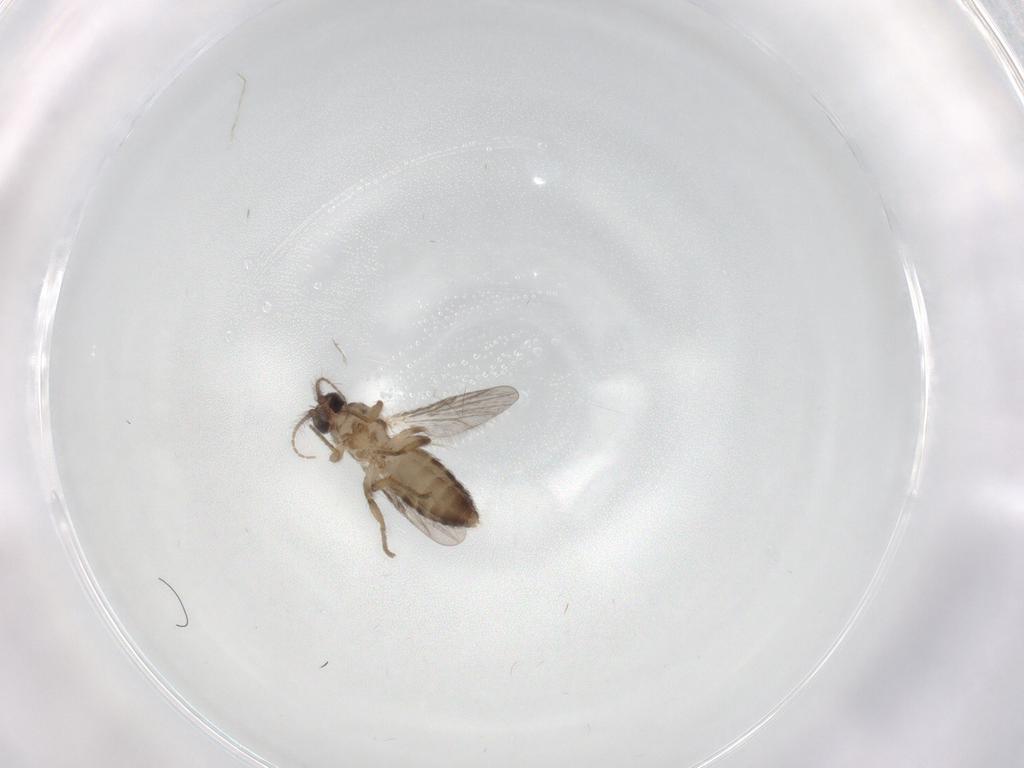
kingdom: Animalia
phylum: Arthropoda
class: Insecta
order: Diptera
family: Ceratopogonidae
